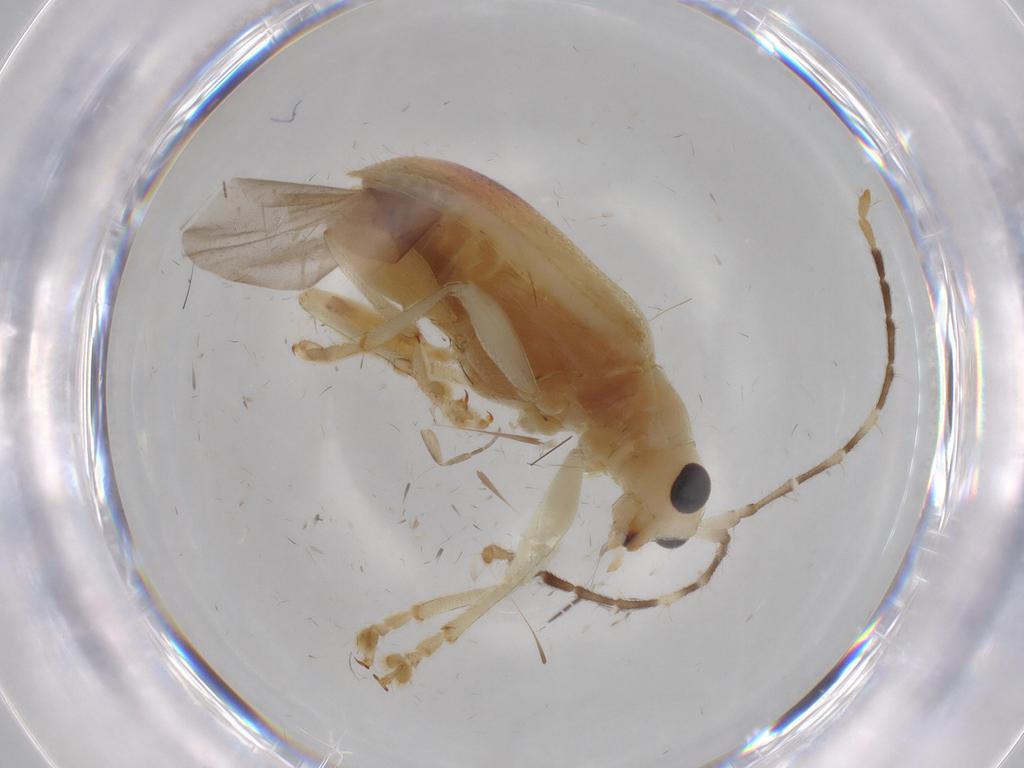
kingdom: Animalia
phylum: Arthropoda
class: Insecta
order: Coleoptera
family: Chrysomelidae
